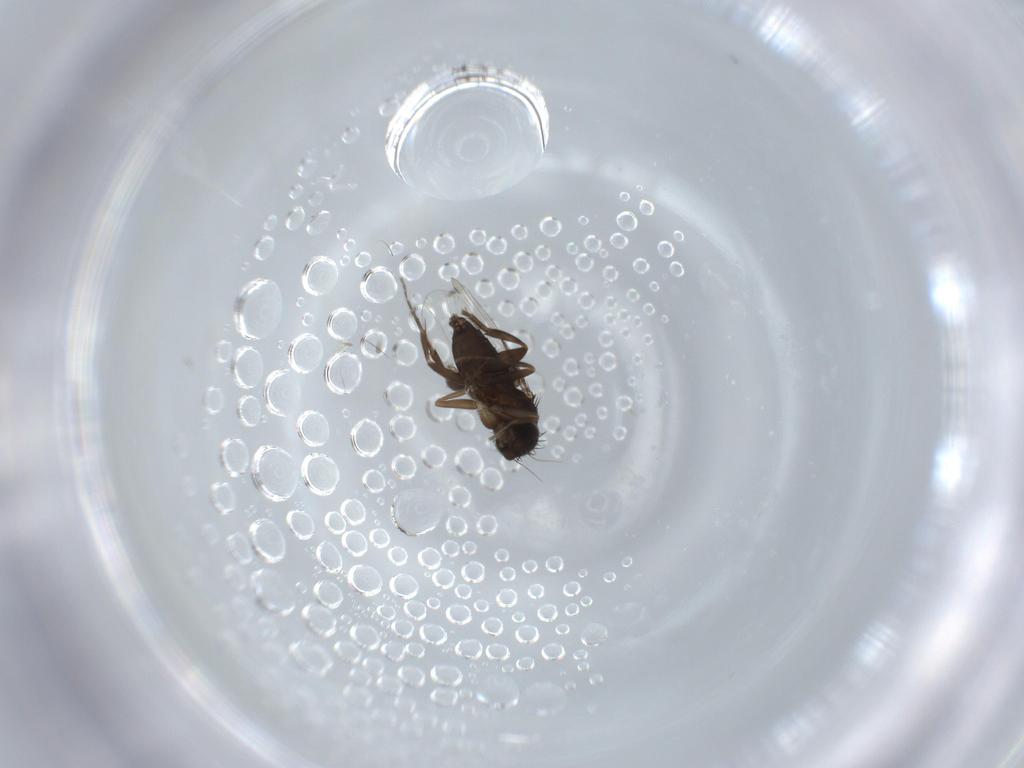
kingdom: Animalia
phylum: Arthropoda
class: Insecta
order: Diptera
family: Phoridae
